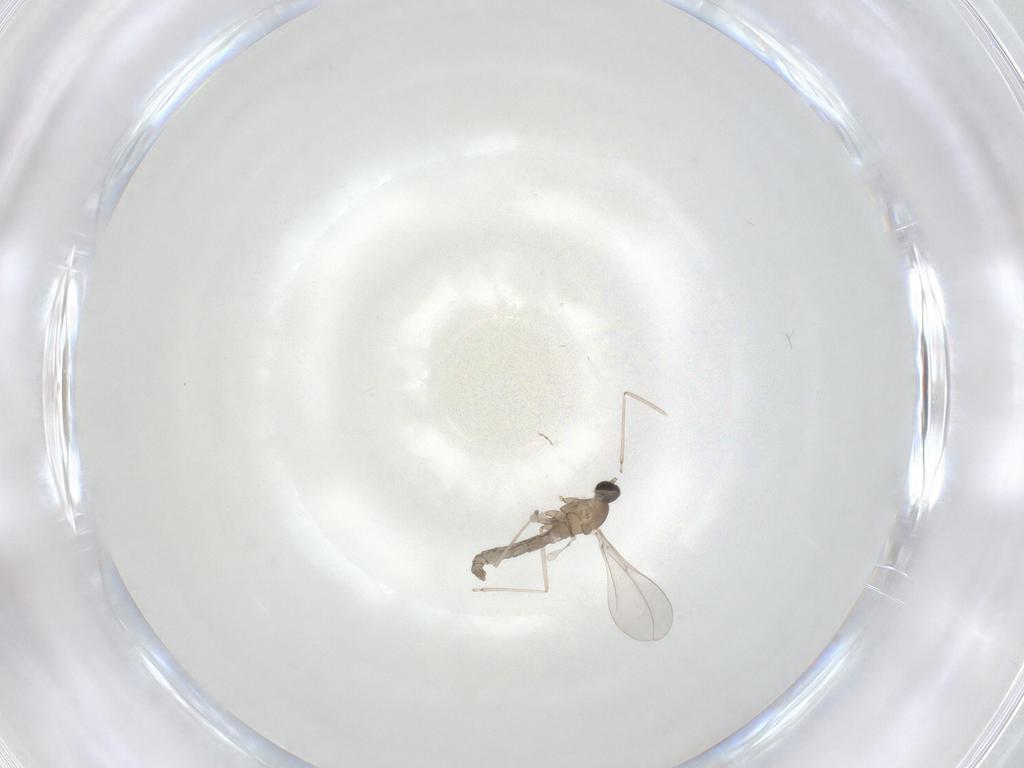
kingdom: Animalia
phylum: Arthropoda
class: Insecta
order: Diptera
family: Cecidomyiidae
